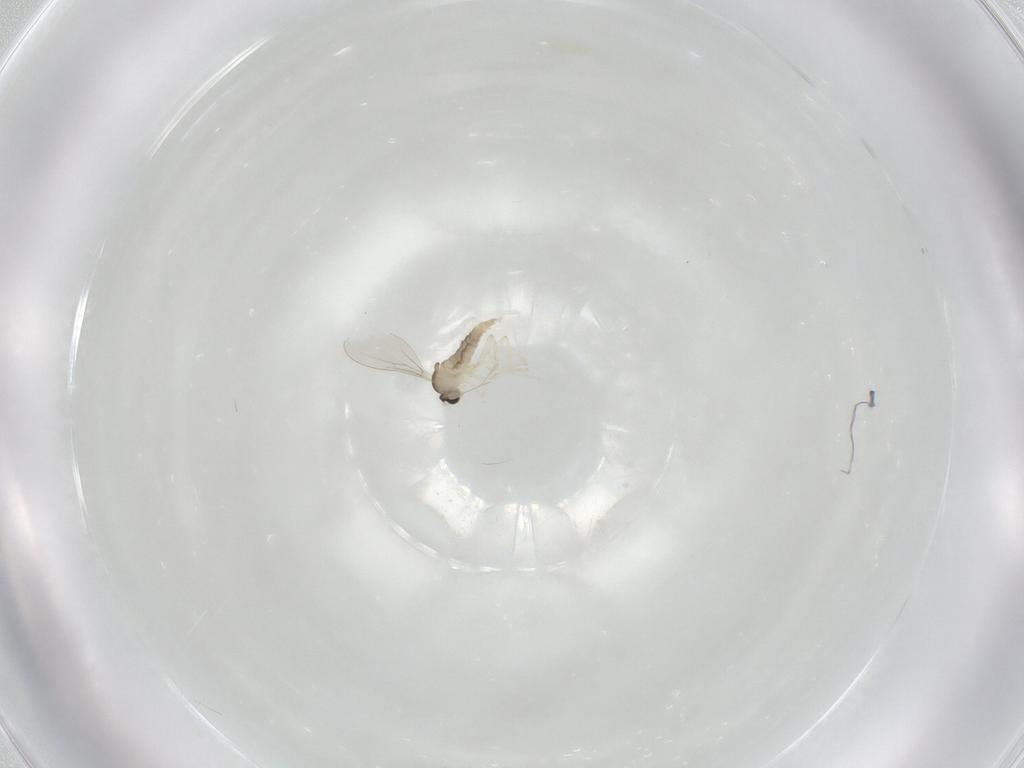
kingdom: Animalia
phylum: Arthropoda
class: Insecta
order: Diptera
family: Cecidomyiidae
